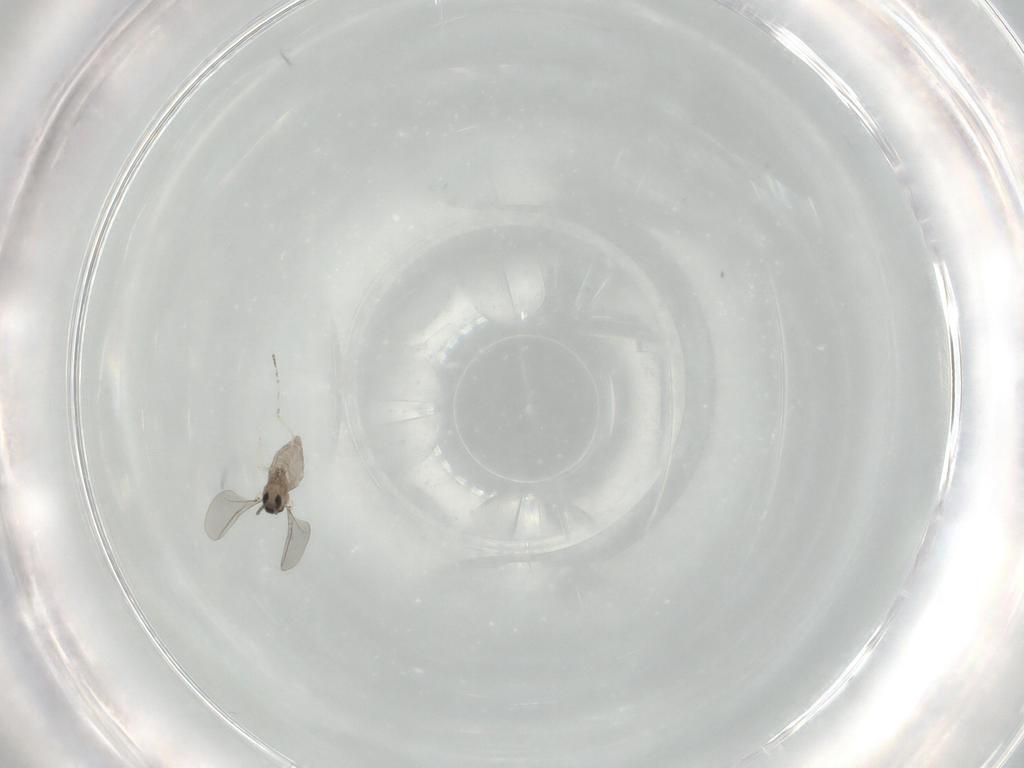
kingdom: Animalia
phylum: Arthropoda
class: Insecta
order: Diptera
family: Cecidomyiidae
